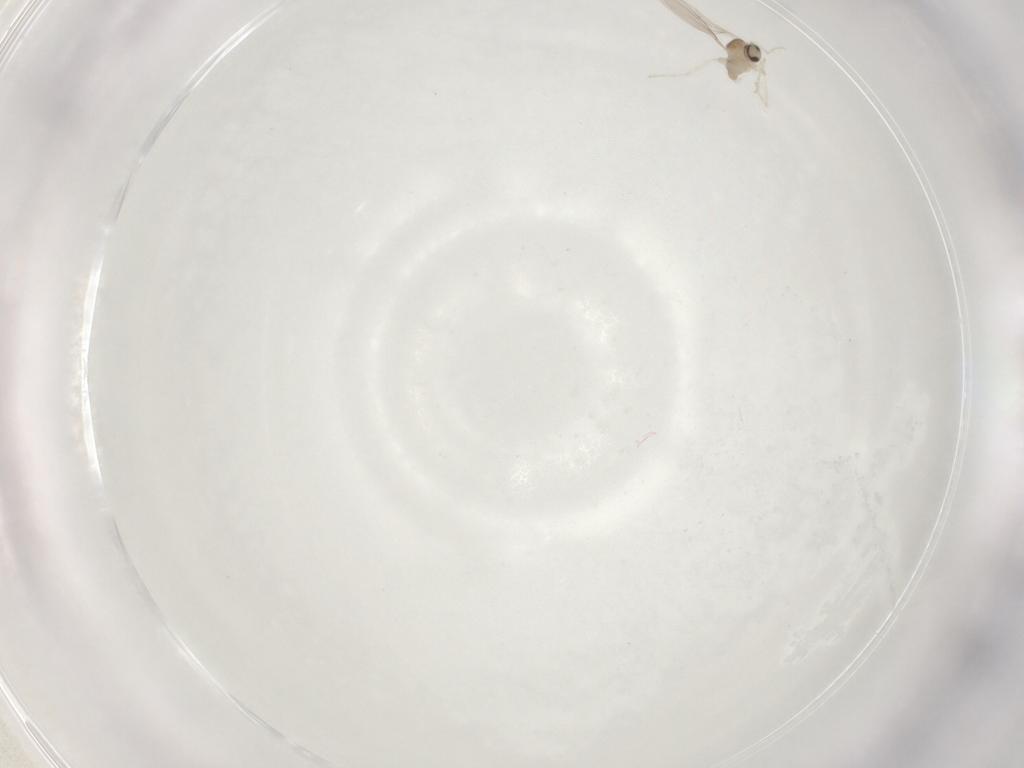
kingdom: Animalia
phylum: Arthropoda
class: Insecta
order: Diptera
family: Cecidomyiidae
